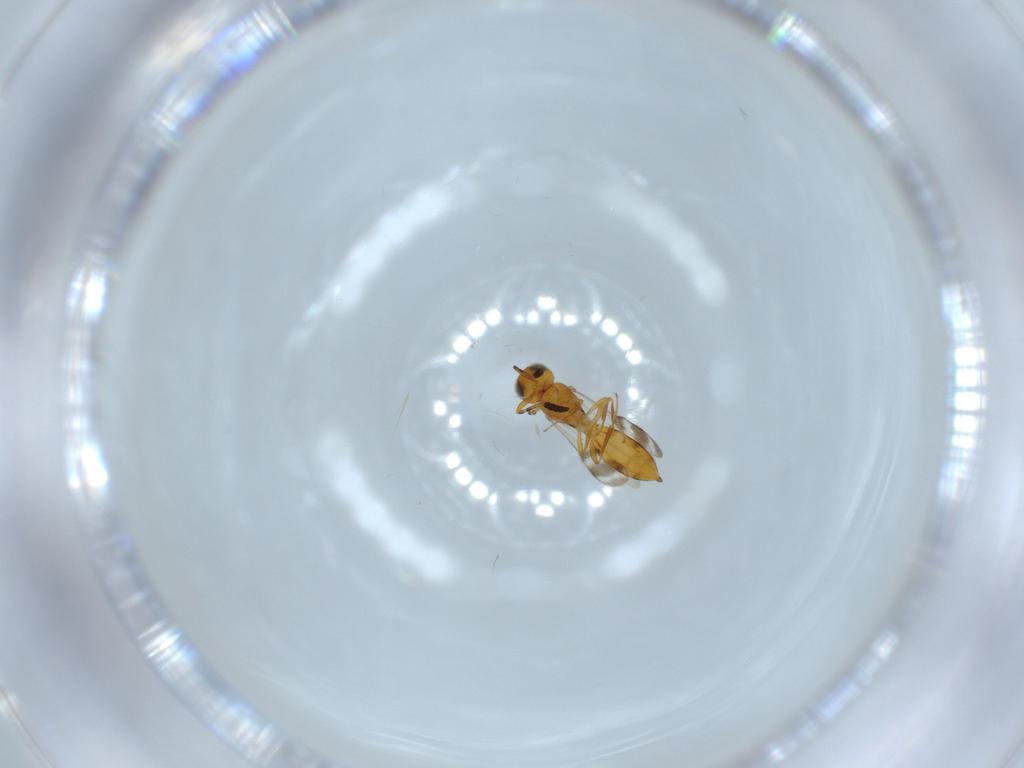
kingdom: Animalia
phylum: Arthropoda
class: Insecta
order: Hymenoptera
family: Scelionidae
